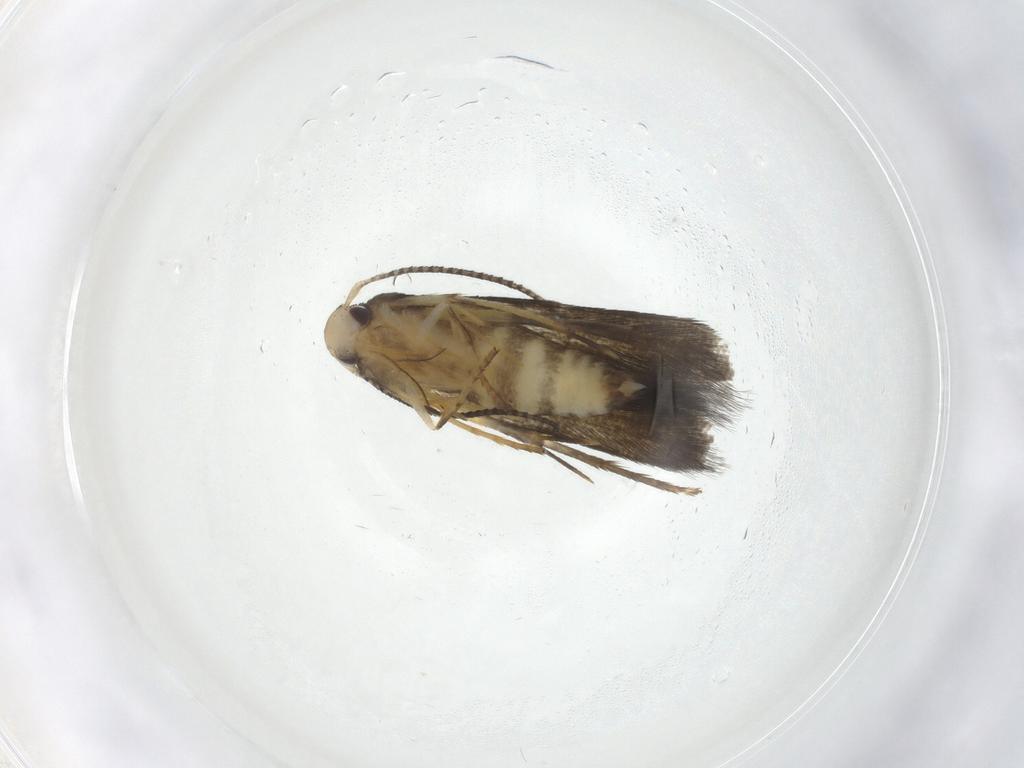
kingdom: Animalia
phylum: Arthropoda
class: Insecta
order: Lepidoptera
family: Stathmopodidae
